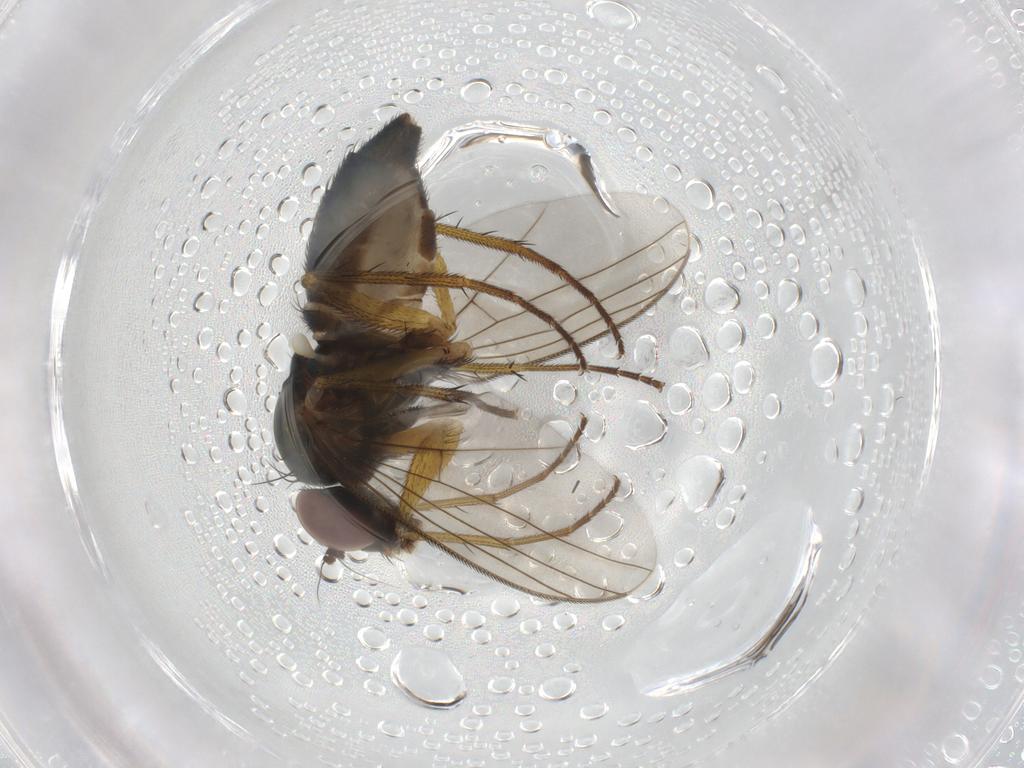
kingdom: Animalia
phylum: Arthropoda
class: Insecta
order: Diptera
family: Dolichopodidae
